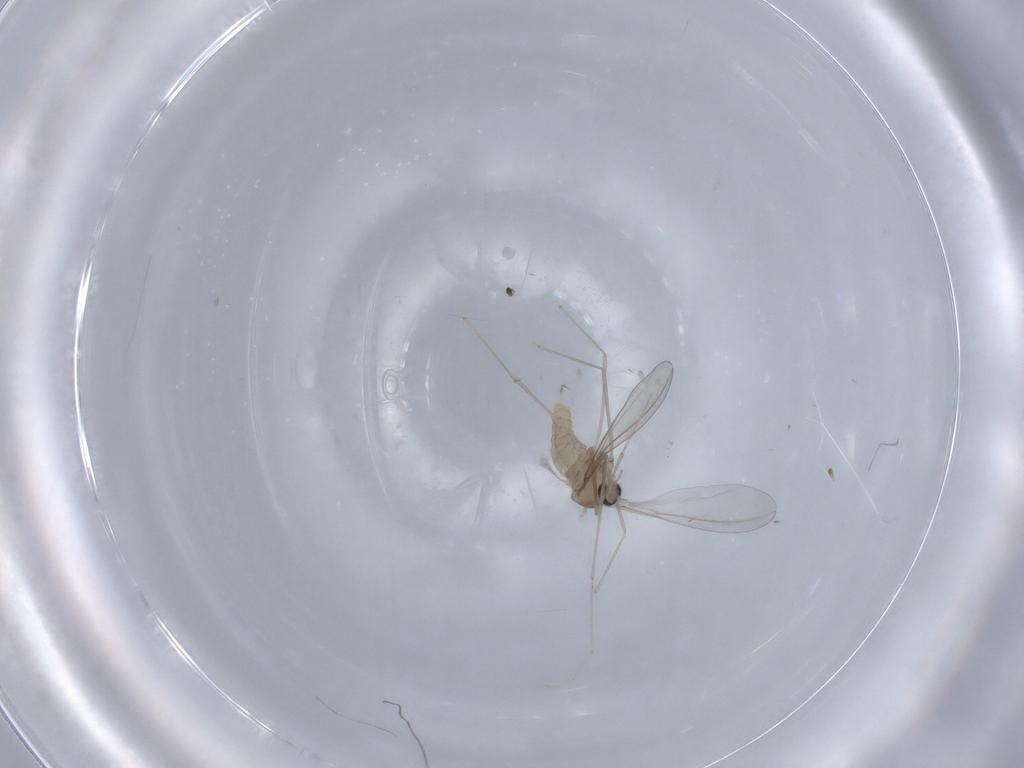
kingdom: Animalia
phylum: Arthropoda
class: Insecta
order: Diptera
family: Cecidomyiidae
